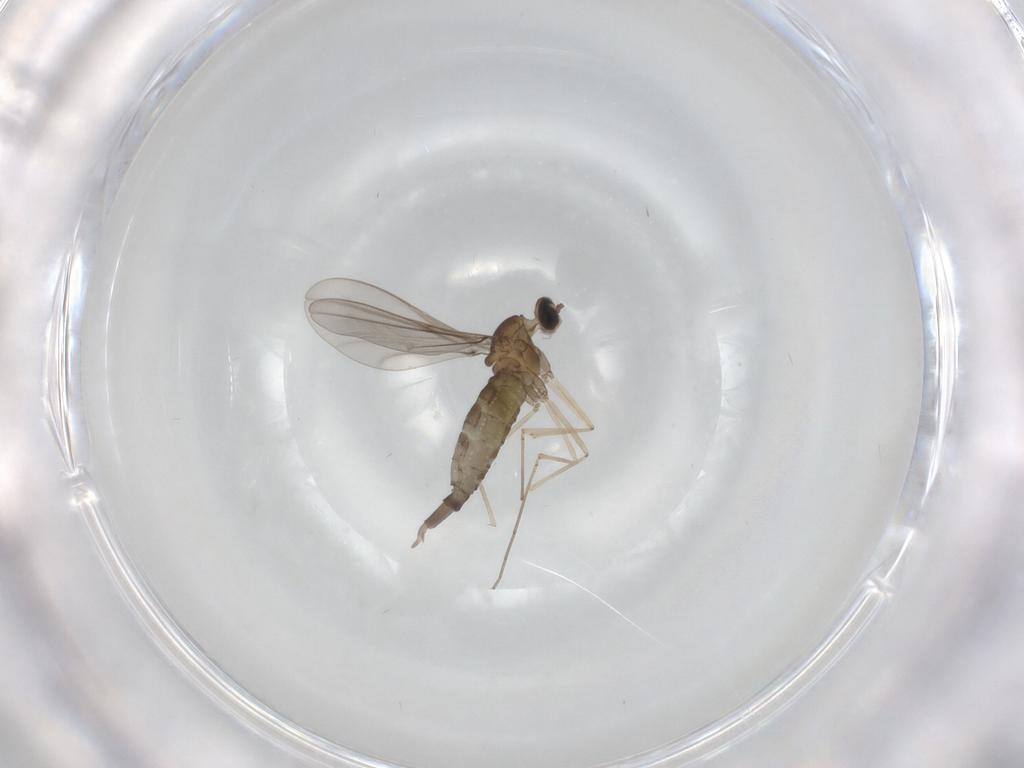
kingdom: Animalia
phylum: Arthropoda
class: Insecta
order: Diptera
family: Cecidomyiidae
